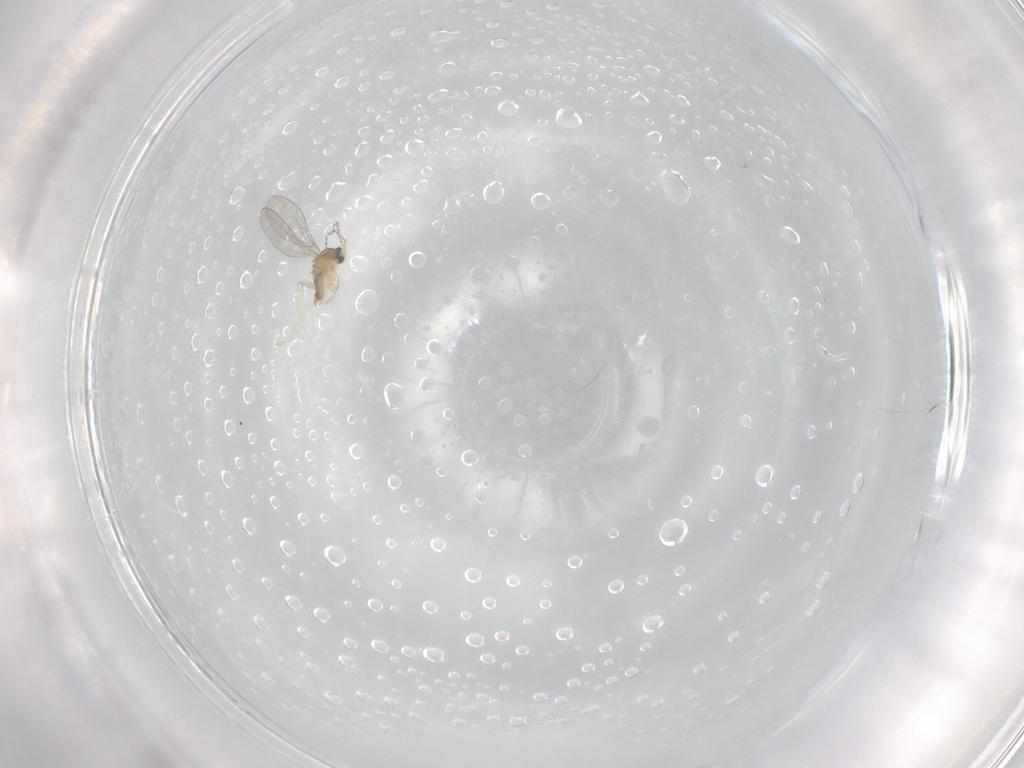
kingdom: Animalia
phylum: Arthropoda
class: Insecta
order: Diptera
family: Cecidomyiidae
